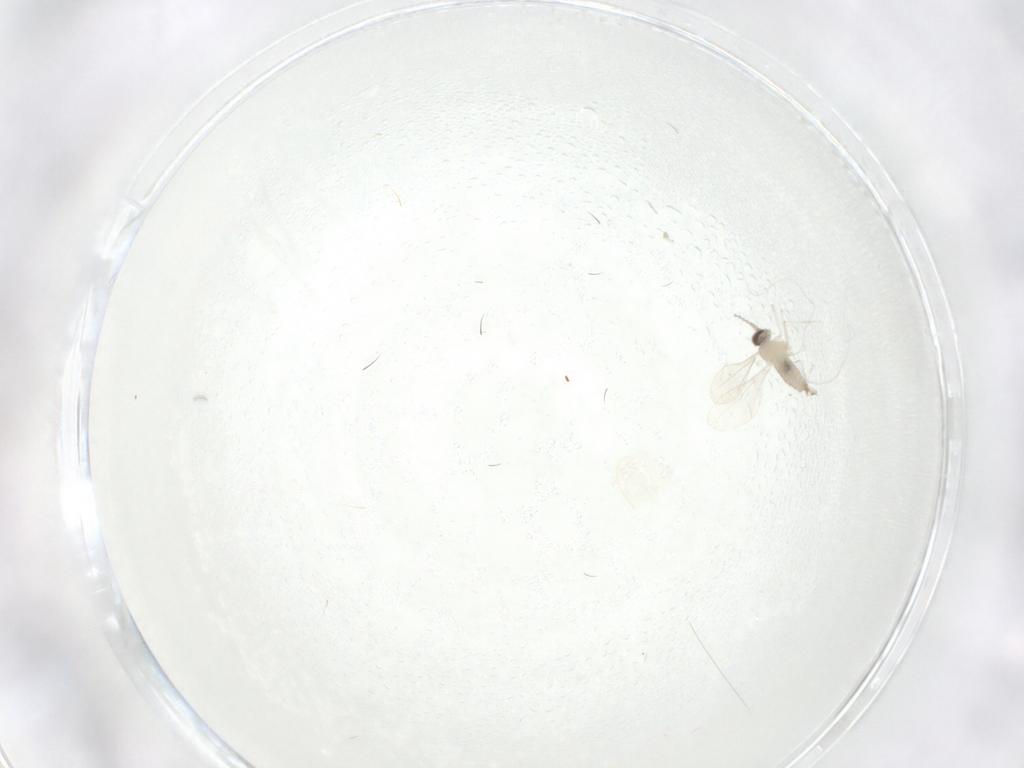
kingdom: Animalia
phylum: Arthropoda
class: Insecta
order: Diptera
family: Cecidomyiidae
